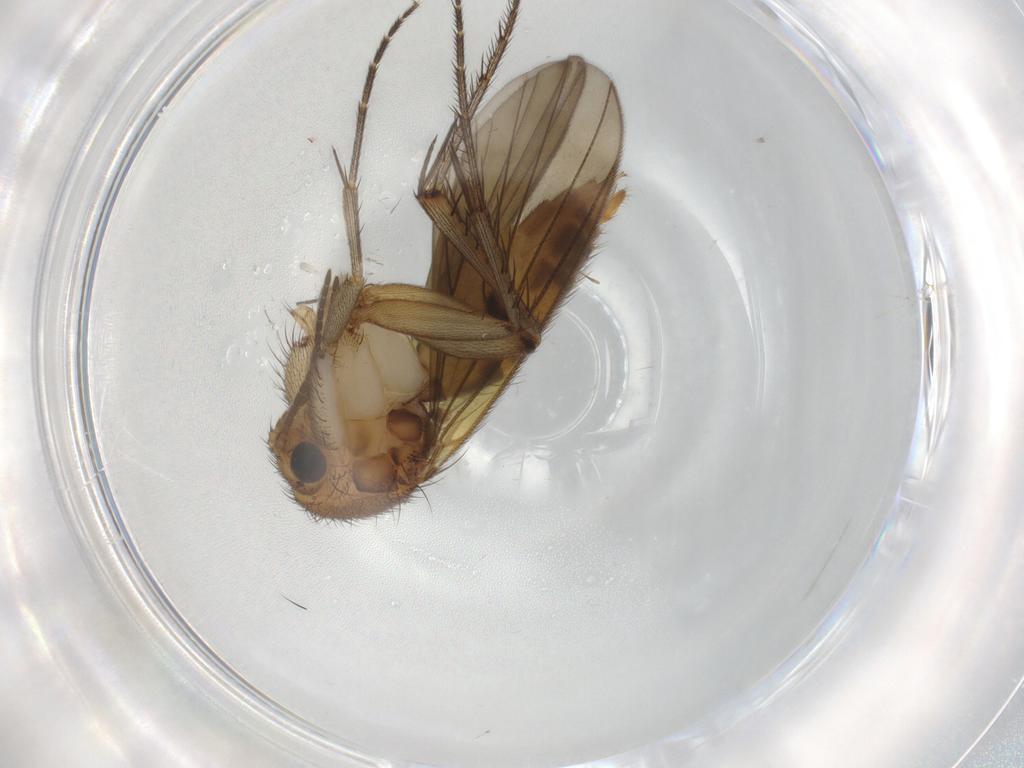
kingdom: Animalia
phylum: Arthropoda
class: Insecta
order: Diptera
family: Mycetophilidae
